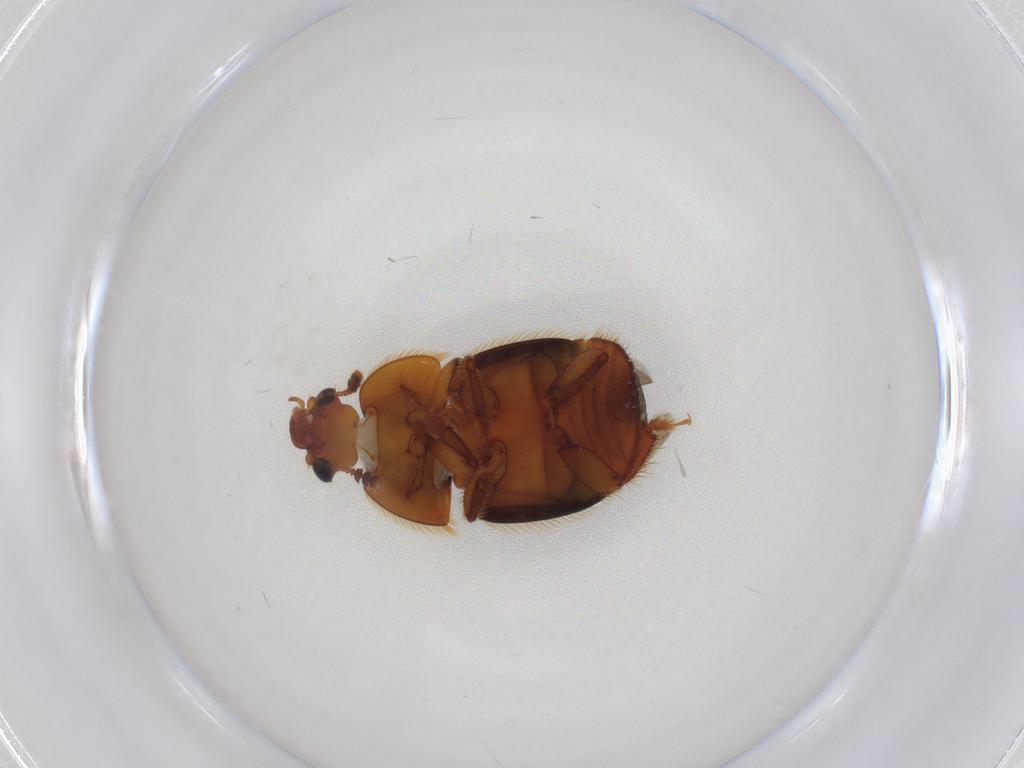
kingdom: Animalia
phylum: Arthropoda
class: Insecta
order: Coleoptera
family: Nitidulidae
